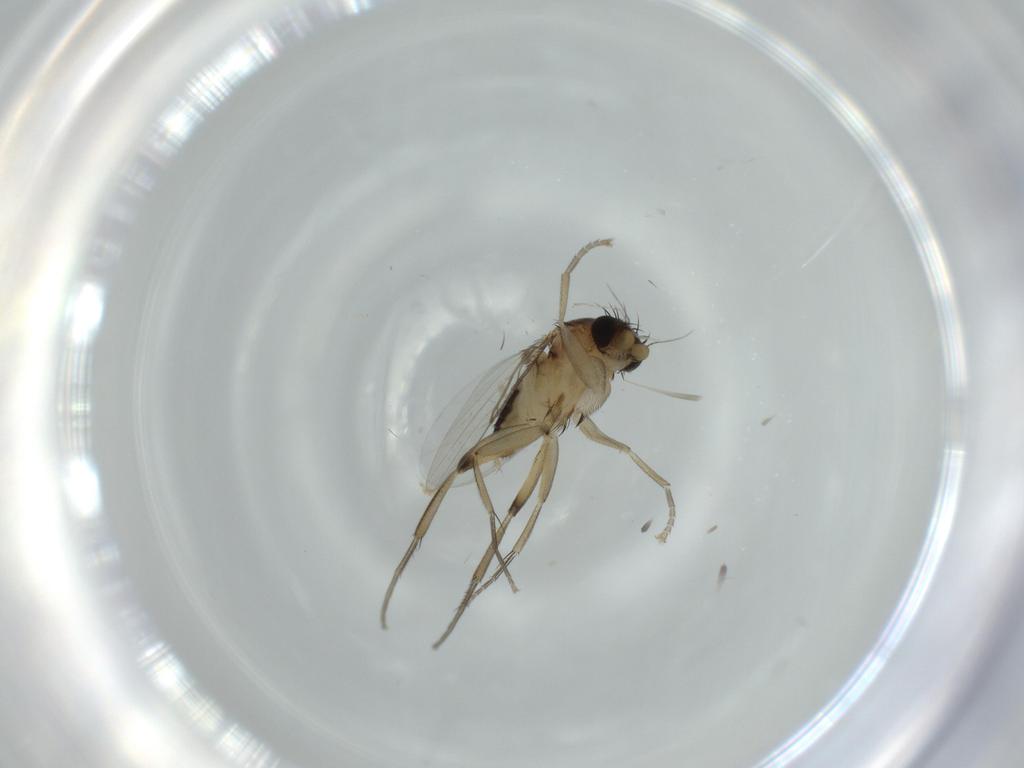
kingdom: Animalia
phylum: Arthropoda
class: Insecta
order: Diptera
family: Phoridae
